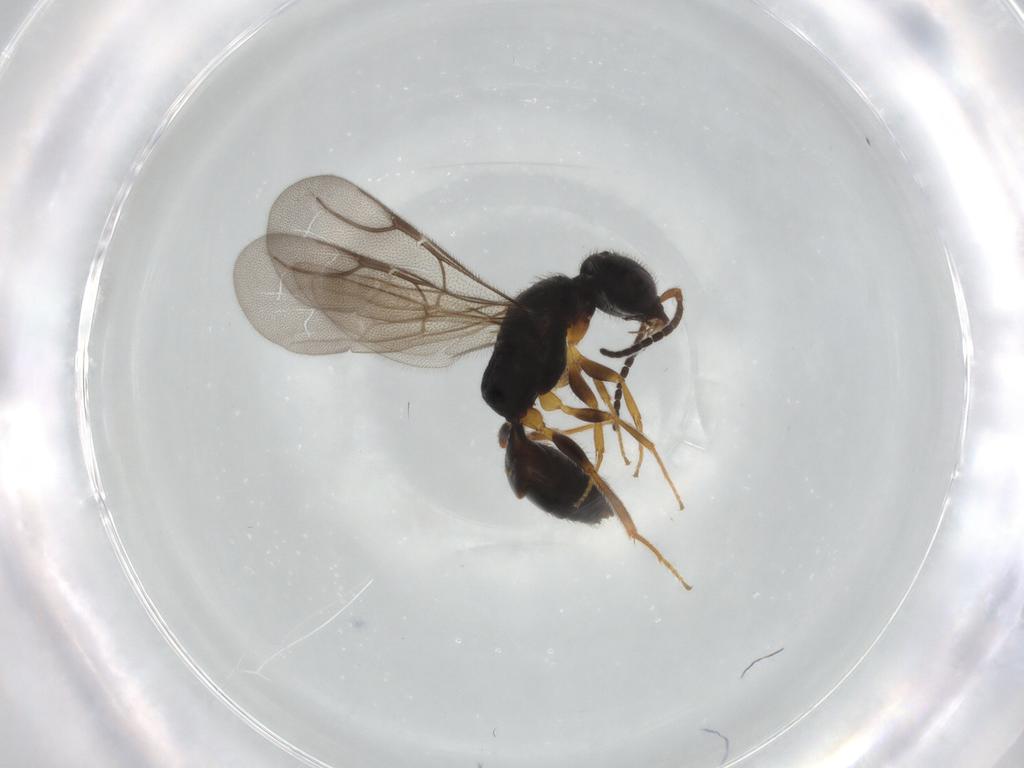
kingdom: Animalia
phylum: Arthropoda
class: Insecta
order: Hymenoptera
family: Bethylidae
